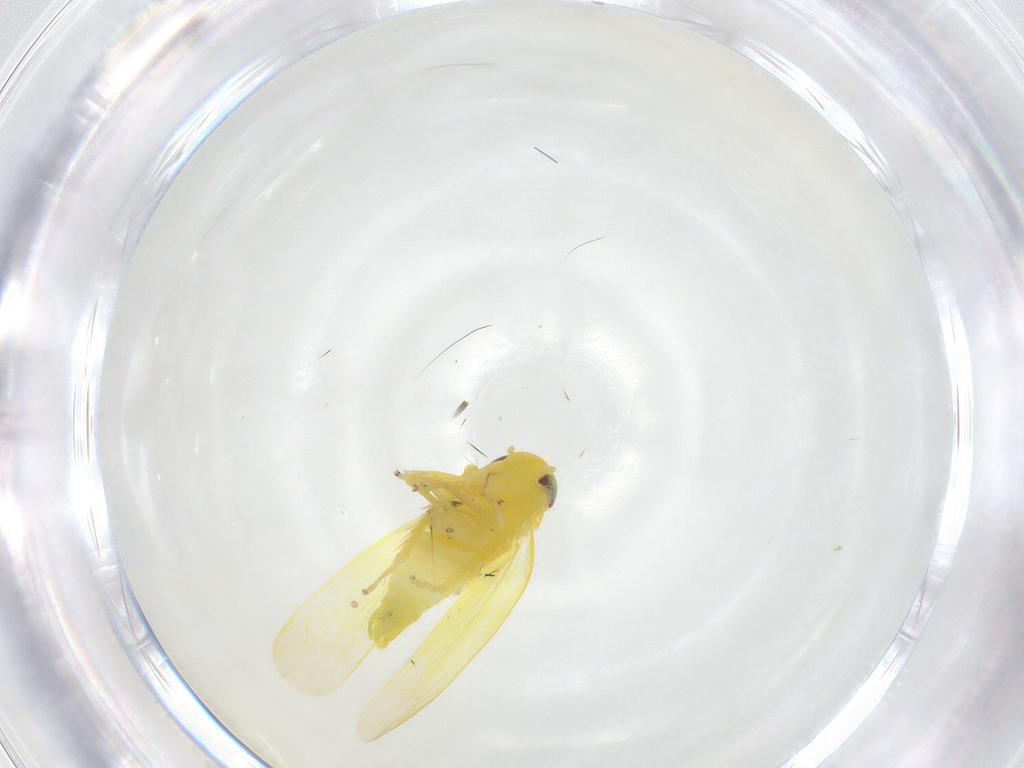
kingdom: Animalia
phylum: Arthropoda
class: Insecta
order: Hemiptera
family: Cicadellidae
